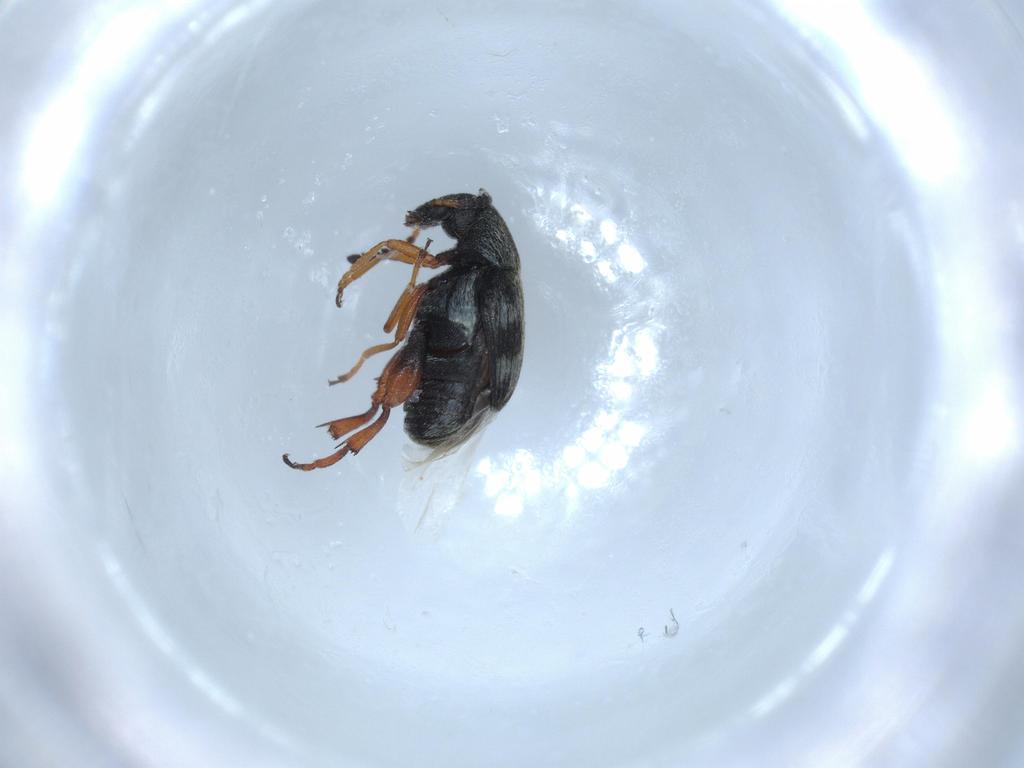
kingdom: Animalia
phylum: Arthropoda
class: Insecta
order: Coleoptera
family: Chrysomelidae
